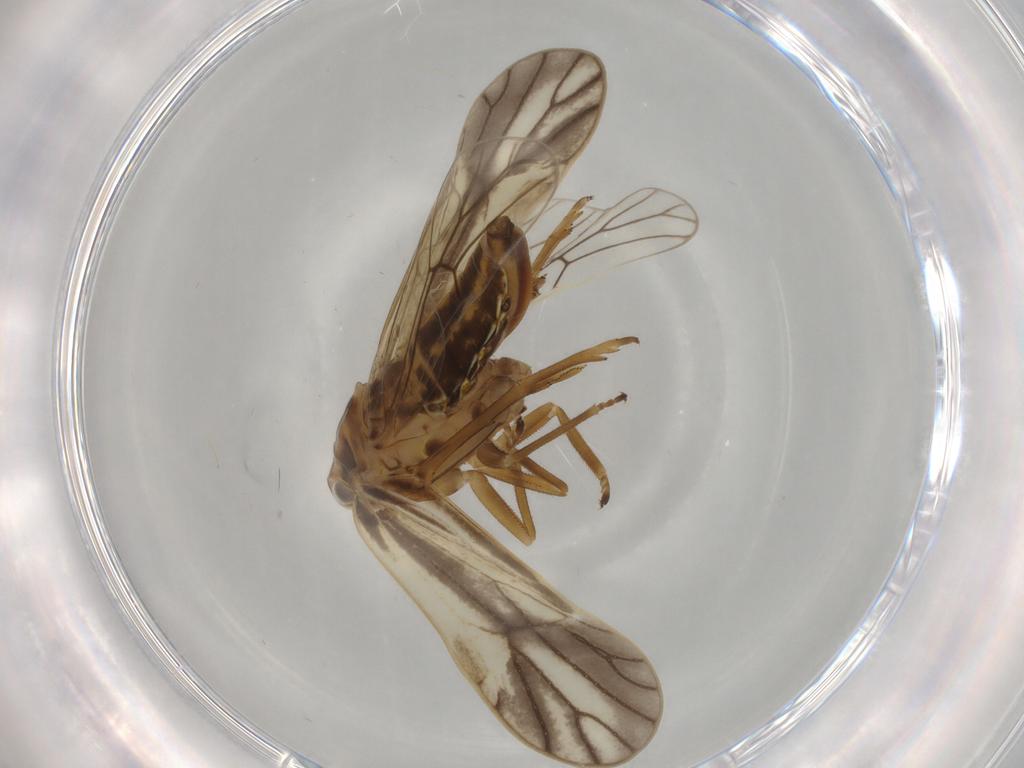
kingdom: Animalia
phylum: Arthropoda
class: Insecta
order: Hemiptera
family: Delphacidae
